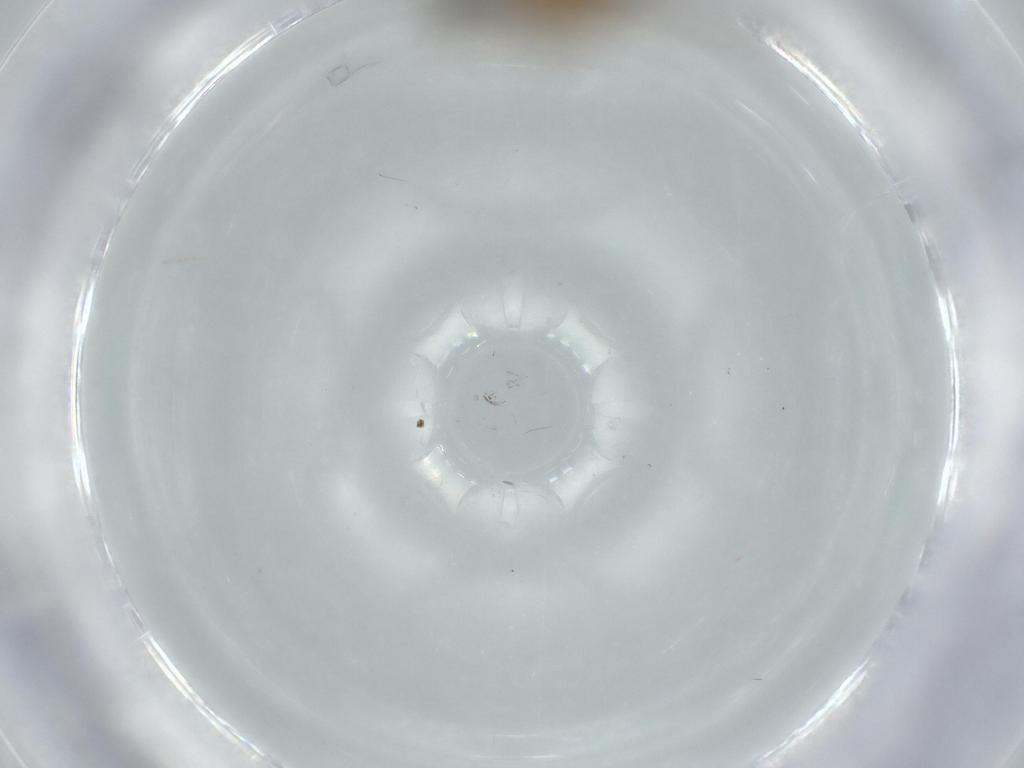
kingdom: Animalia
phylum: Arthropoda
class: Insecta
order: Diptera
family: Cecidomyiidae
